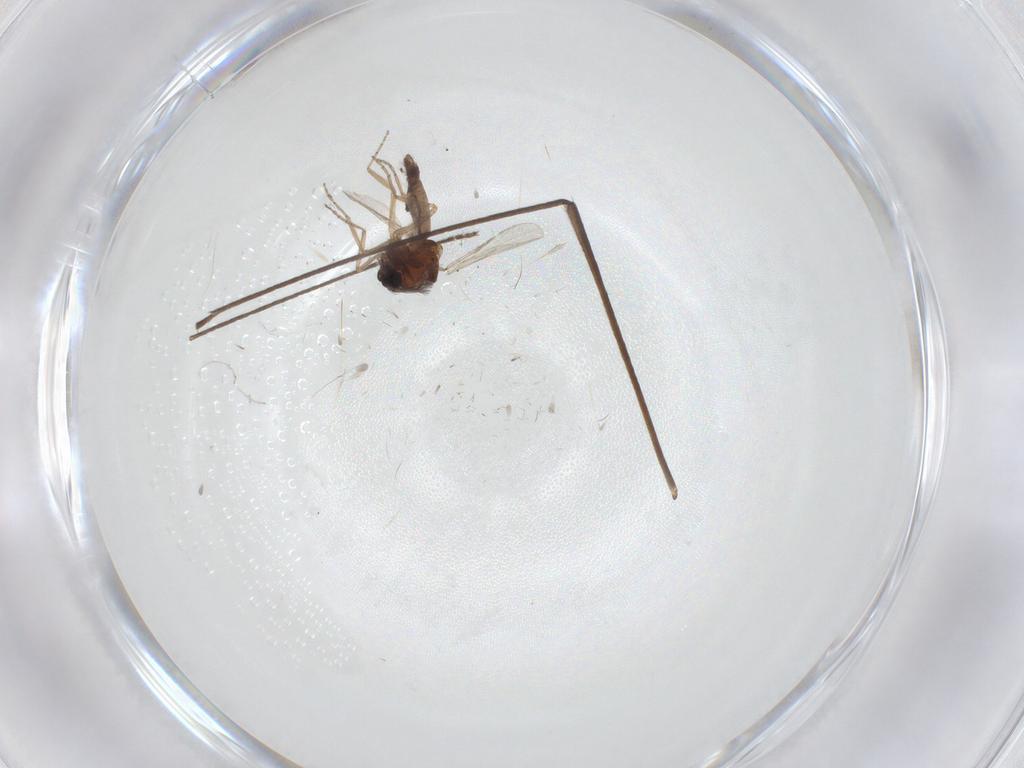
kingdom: Animalia
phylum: Arthropoda
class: Insecta
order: Diptera
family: Limoniidae
